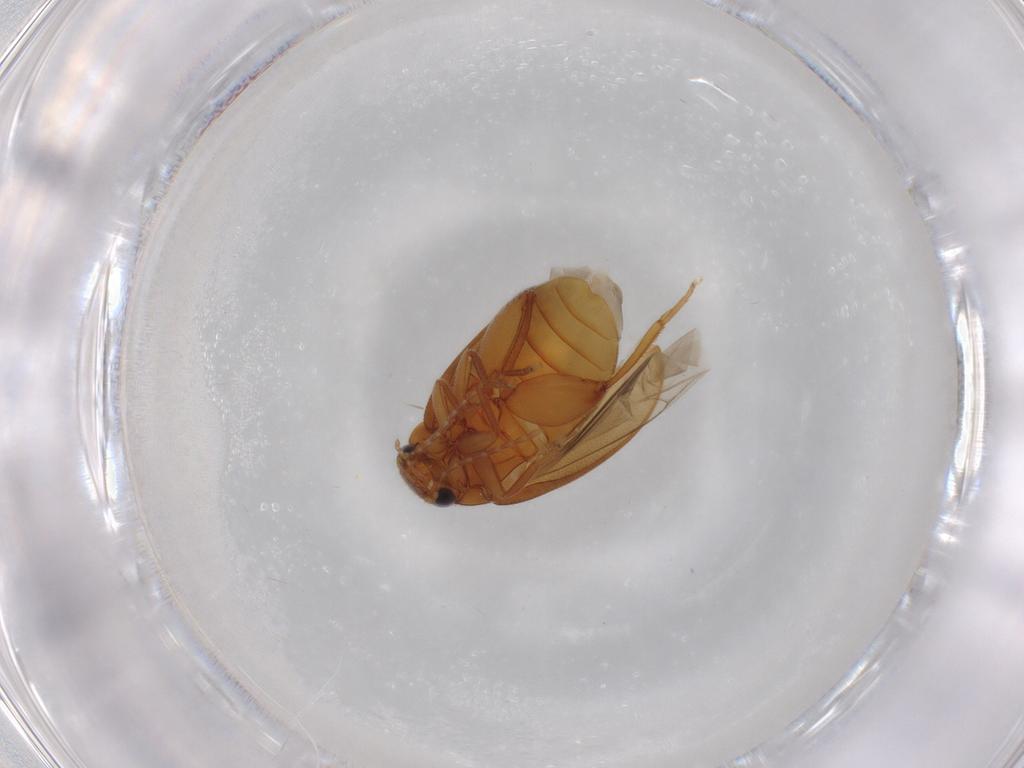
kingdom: Animalia
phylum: Arthropoda
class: Insecta
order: Coleoptera
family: Scirtidae
